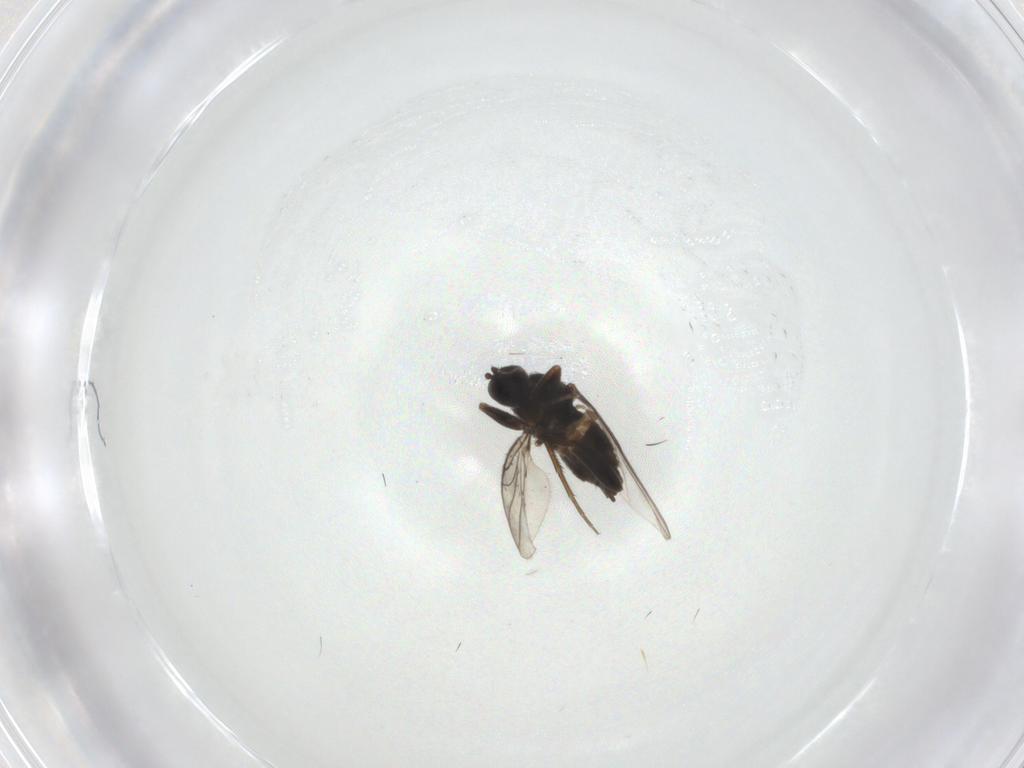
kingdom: Animalia
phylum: Arthropoda
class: Insecta
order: Diptera
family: Hybotidae
